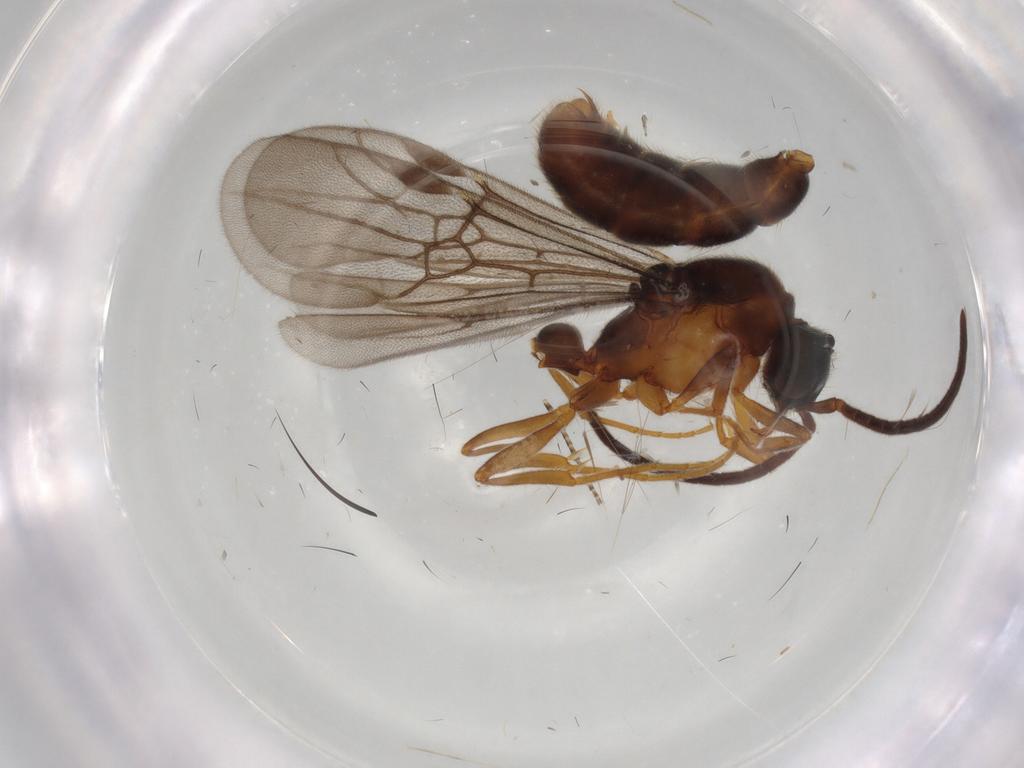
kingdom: Animalia
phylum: Arthropoda
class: Insecta
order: Hymenoptera
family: Formicidae
